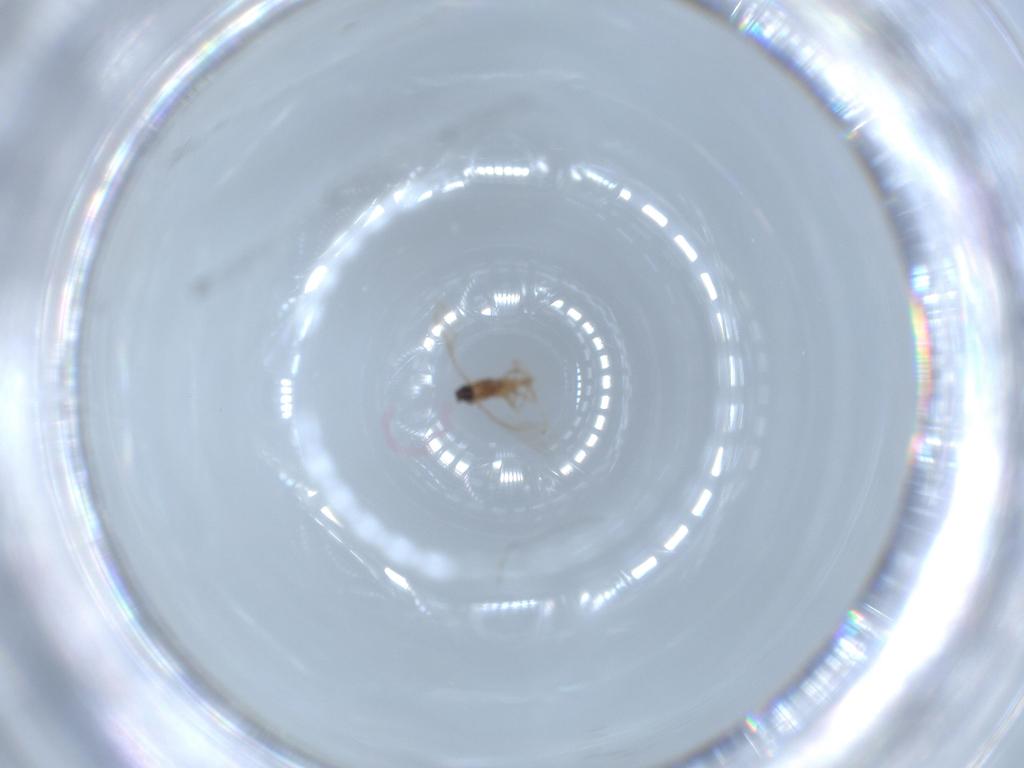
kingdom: Animalia
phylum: Arthropoda
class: Insecta
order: Diptera
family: Cecidomyiidae
